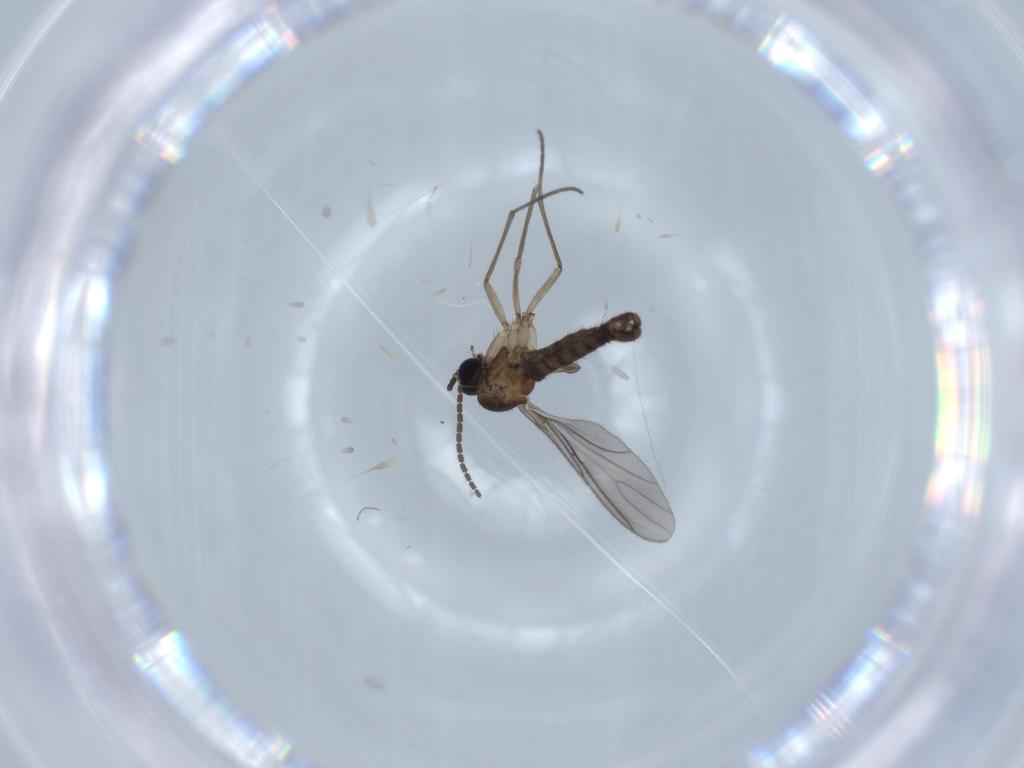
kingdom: Animalia
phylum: Arthropoda
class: Insecta
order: Diptera
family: Sciaridae
